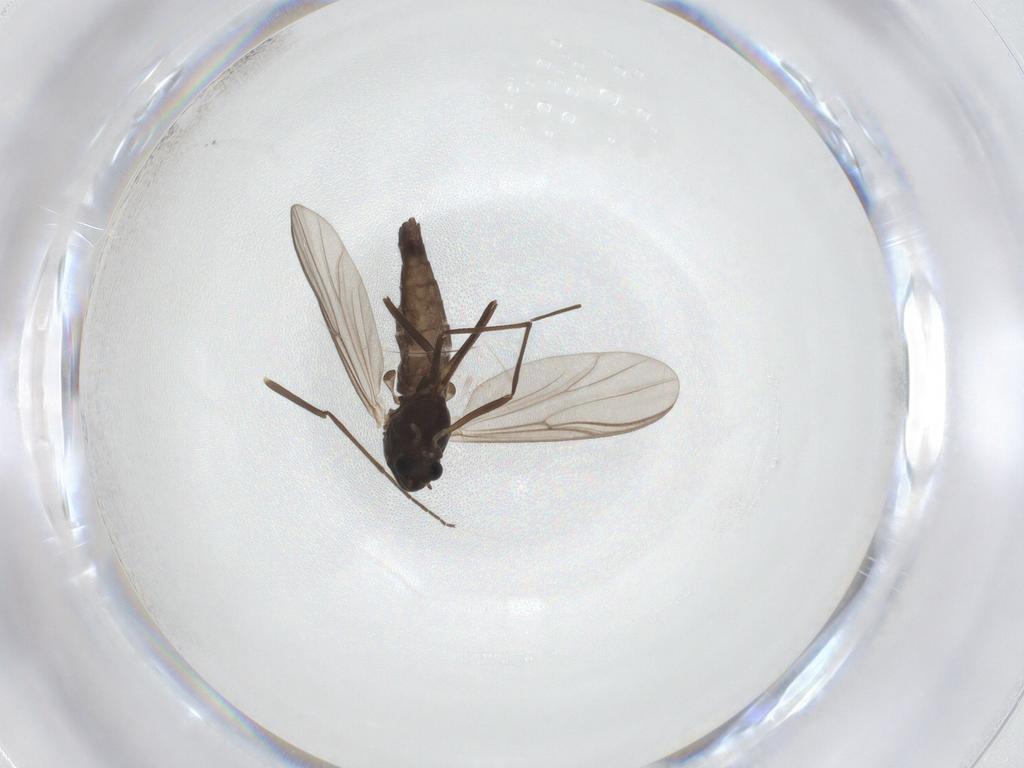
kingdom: Animalia
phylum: Arthropoda
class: Insecta
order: Diptera
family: Chironomidae
